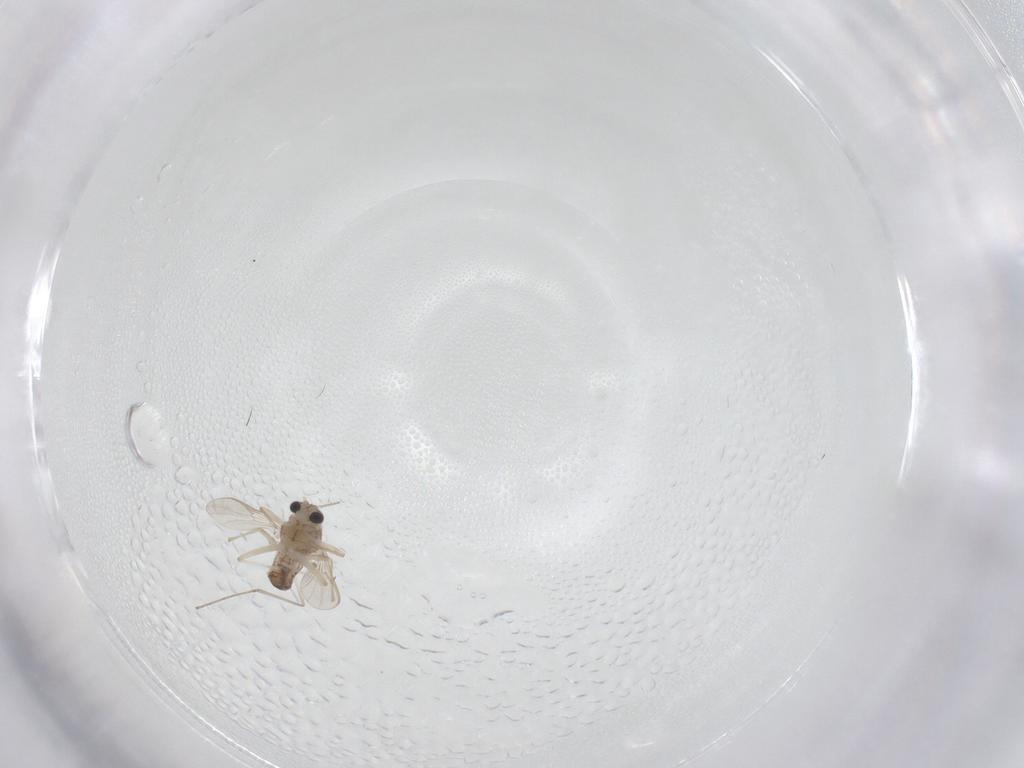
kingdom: Animalia
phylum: Arthropoda
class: Insecta
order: Diptera
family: Chironomidae
